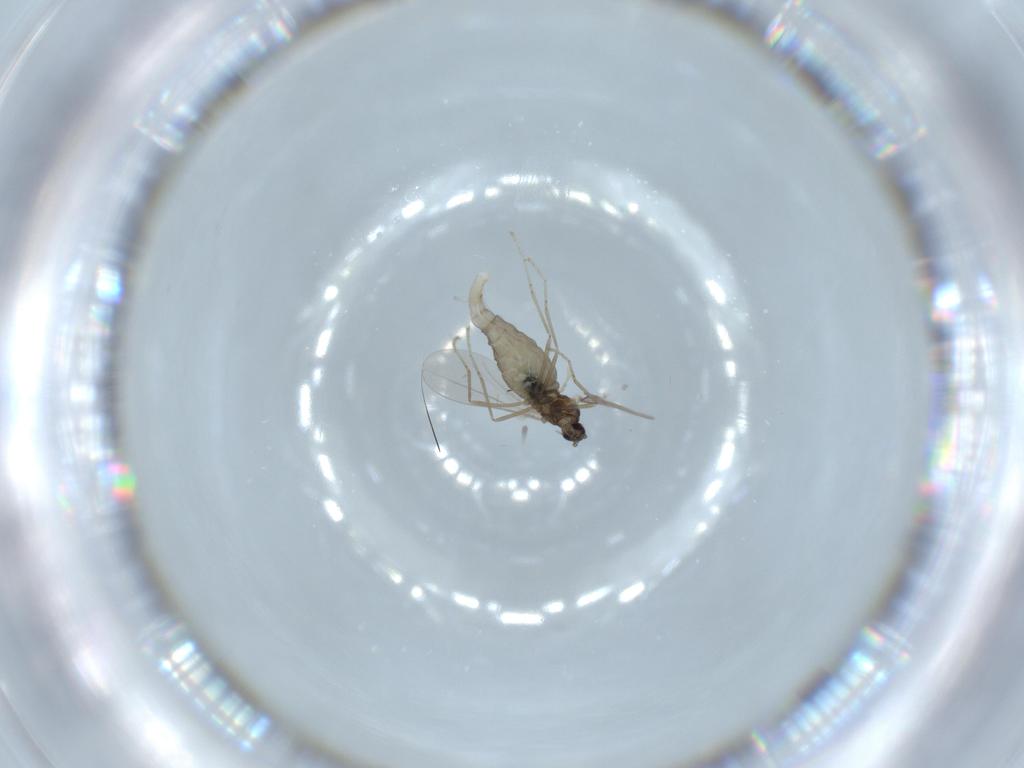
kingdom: Animalia
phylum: Arthropoda
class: Insecta
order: Diptera
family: Cecidomyiidae
